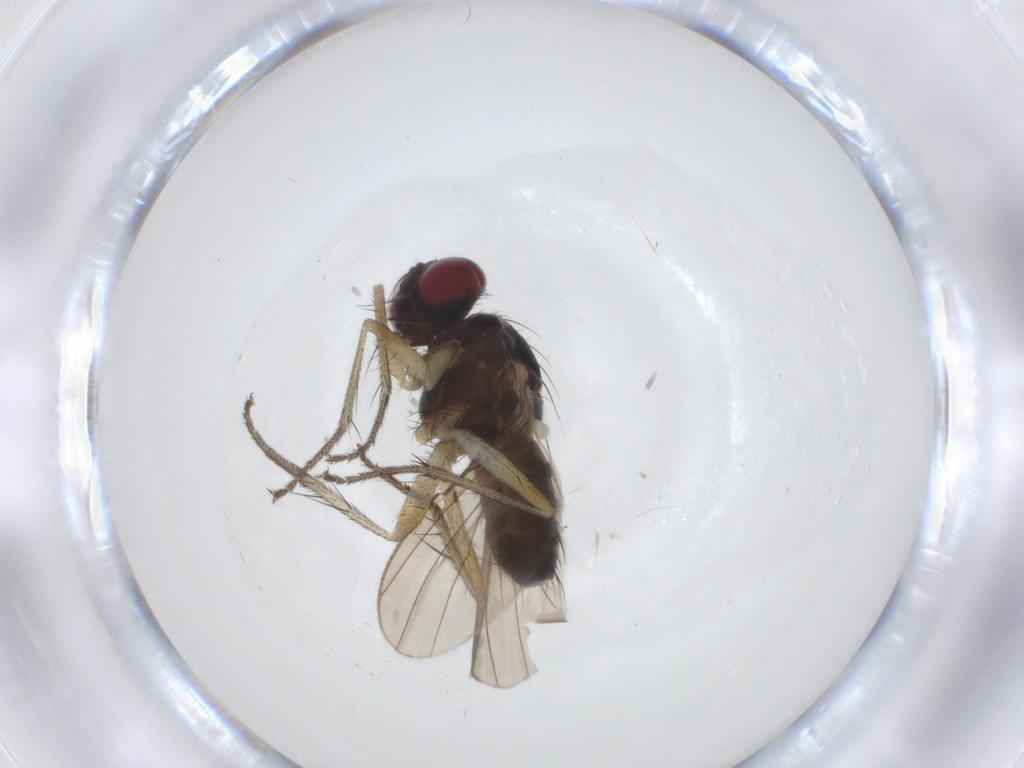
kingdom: Animalia
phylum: Arthropoda
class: Insecta
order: Diptera
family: Muscidae
